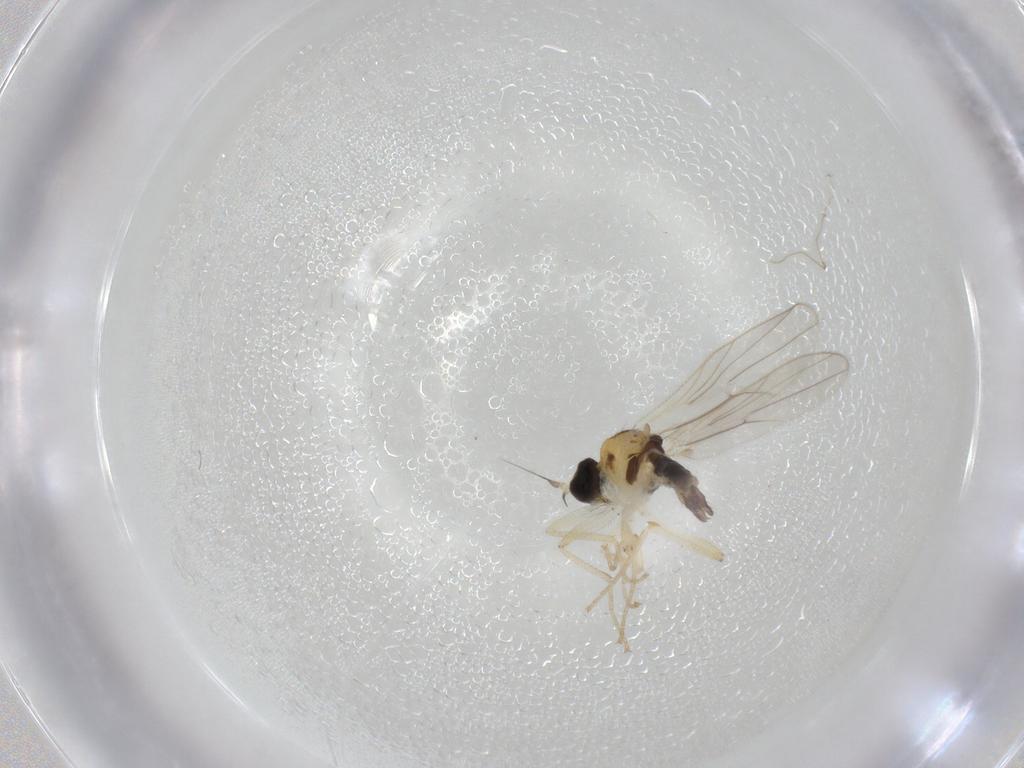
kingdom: Animalia
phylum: Arthropoda
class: Insecta
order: Diptera
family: Hybotidae
